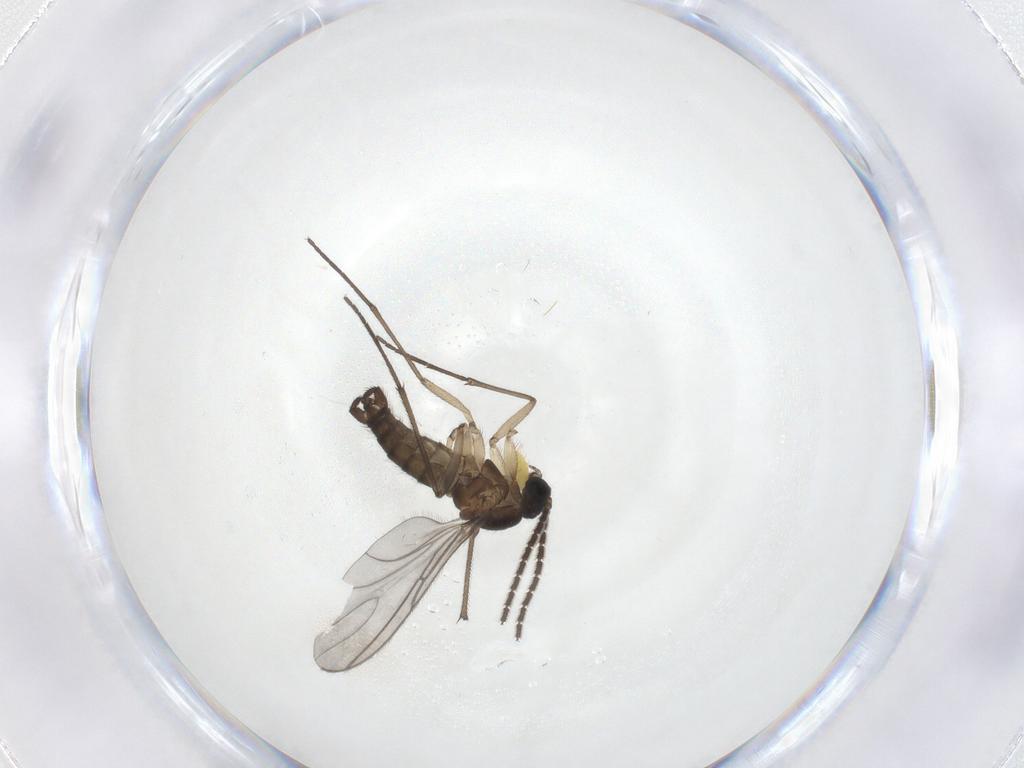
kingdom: Animalia
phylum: Arthropoda
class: Insecta
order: Diptera
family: Sciaridae
